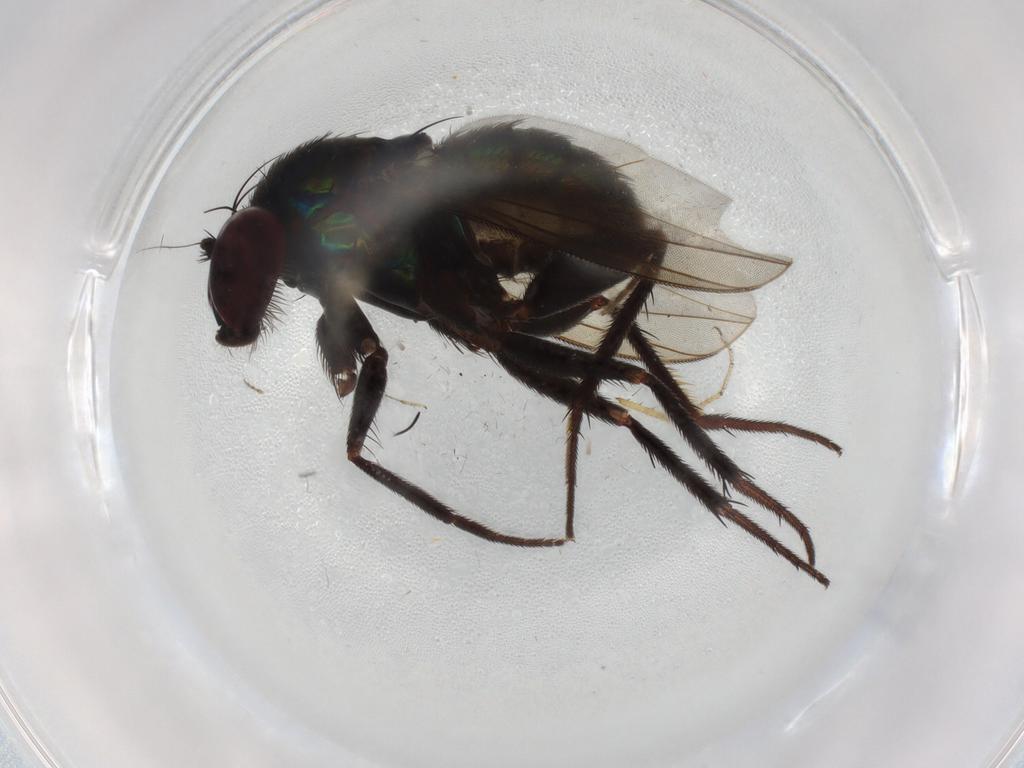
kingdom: Animalia
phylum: Arthropoda
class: Insecta
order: Diptera
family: Dolichopodidae
